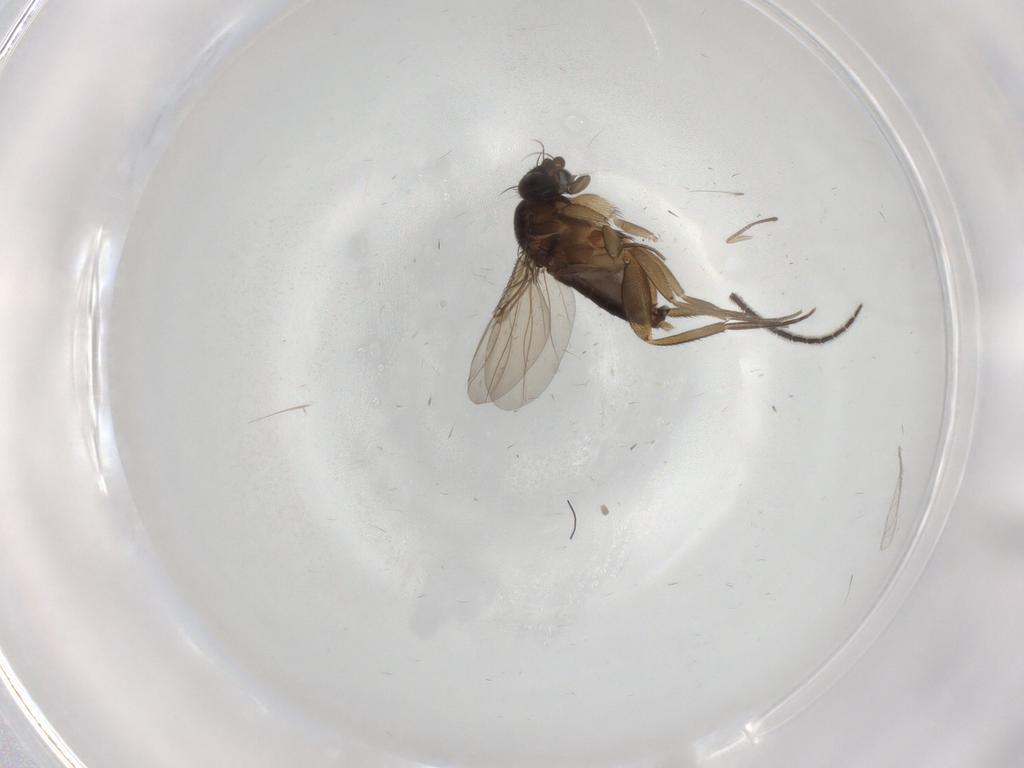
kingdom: Animalia
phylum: Arthropoda
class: Insecta
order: Diptera
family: Phoridae
